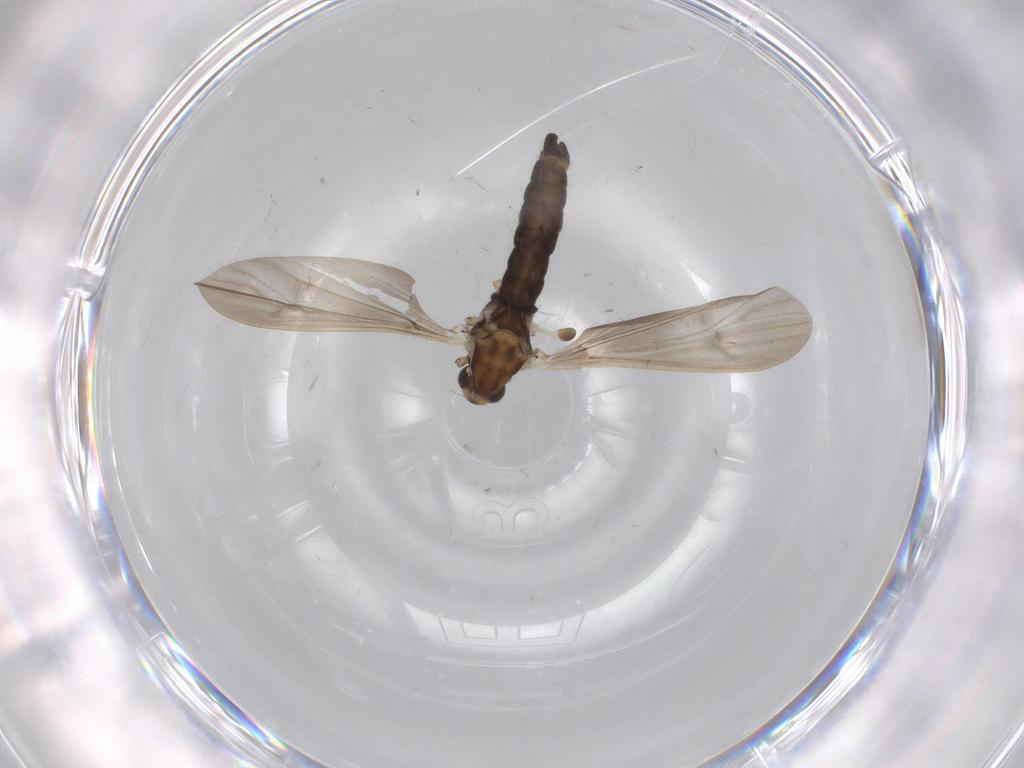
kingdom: Animalia
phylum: Arthropoda
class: Insecta
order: Diptera
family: Limoniidae
